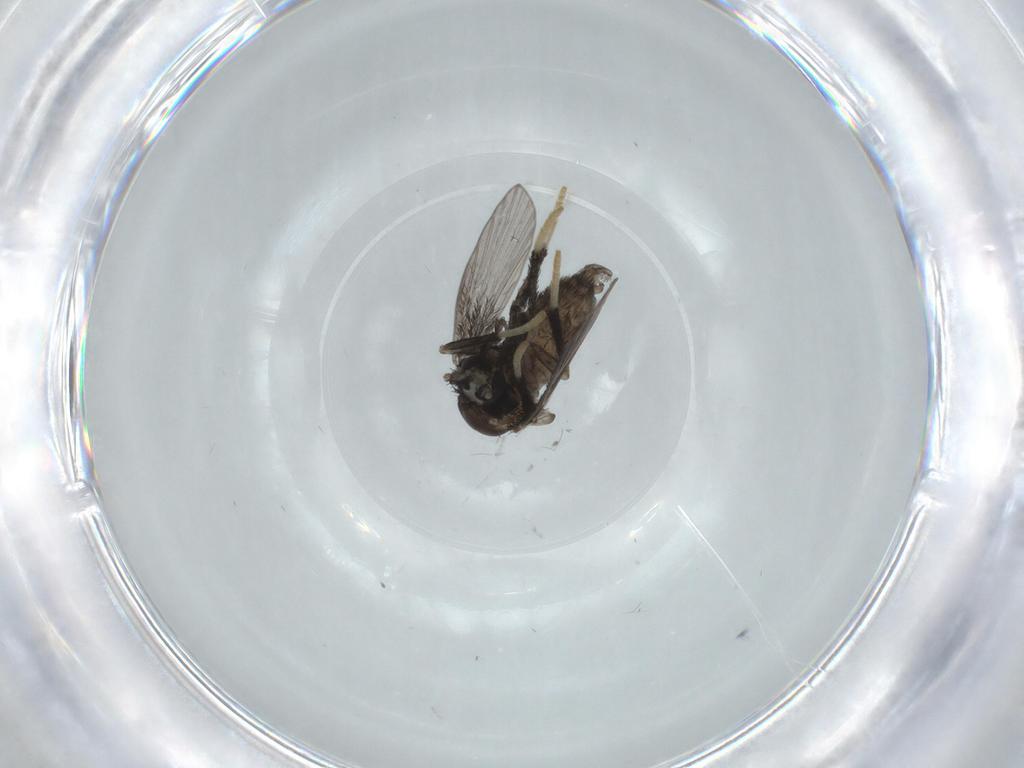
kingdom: Animalia
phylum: Arthropoda
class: Insecta
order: Diptera
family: Psychodidae
